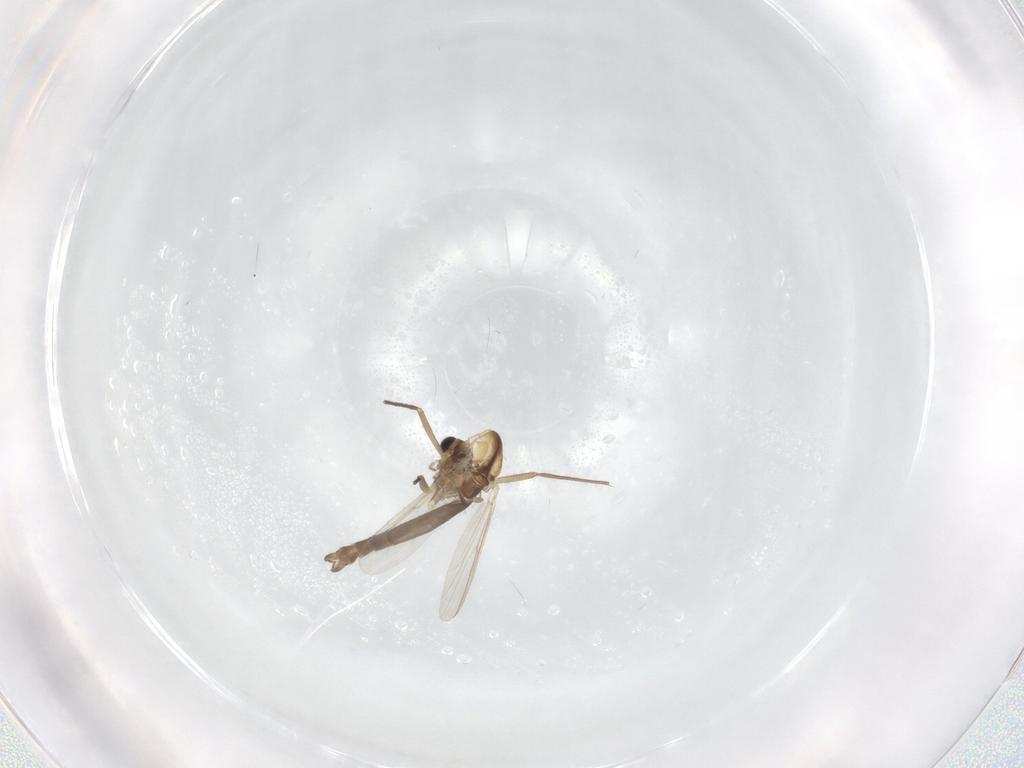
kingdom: Animalia
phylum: Arthropoda
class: Insecta
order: Diptera
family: Chironomidae
